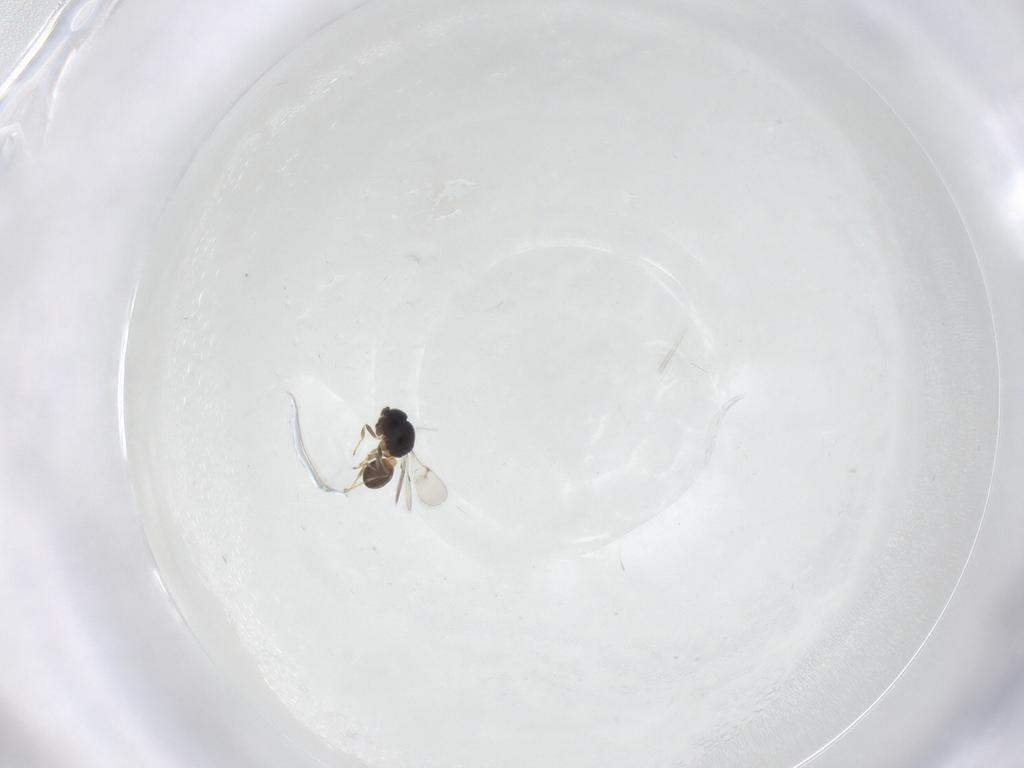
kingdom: Animalia
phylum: Arthropoda
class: Insecta
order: Hymenoptera
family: Scelionidae
